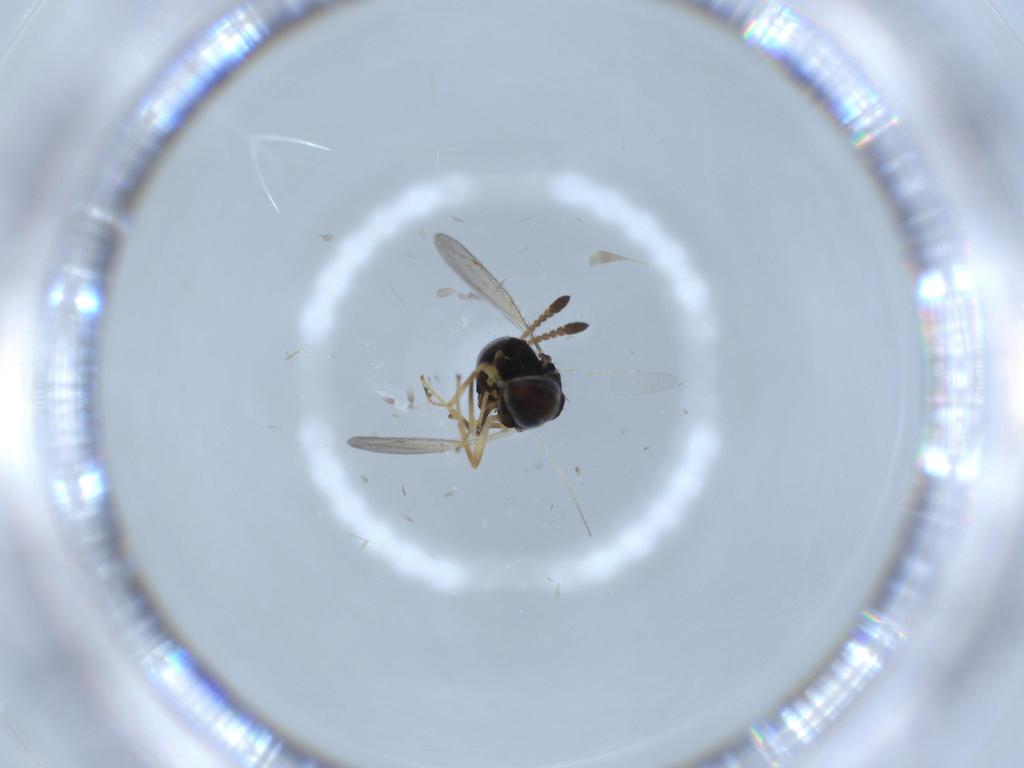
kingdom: Animalia
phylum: Arthropoda
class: Insecta
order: Hymenoptera
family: Pteromalidae
